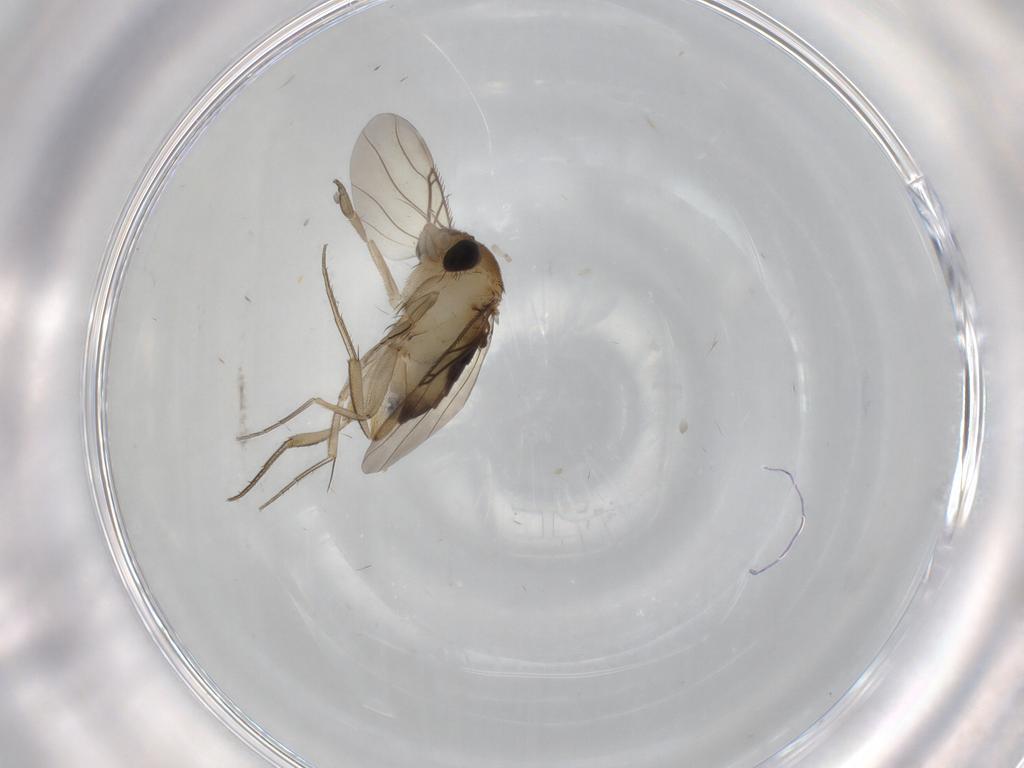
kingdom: Animalia
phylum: Arthropoda
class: Insecta
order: Diptera
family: Phoridae
